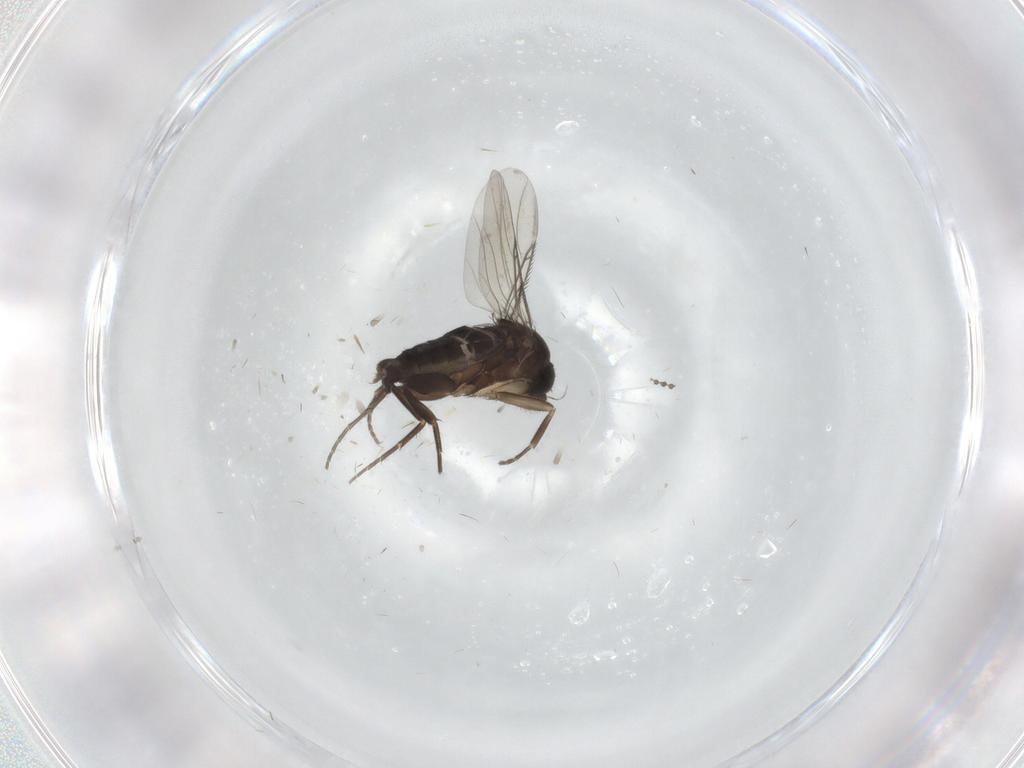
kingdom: Animalia
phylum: Arthropoda
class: Insecta
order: Diptera
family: Phoridae
